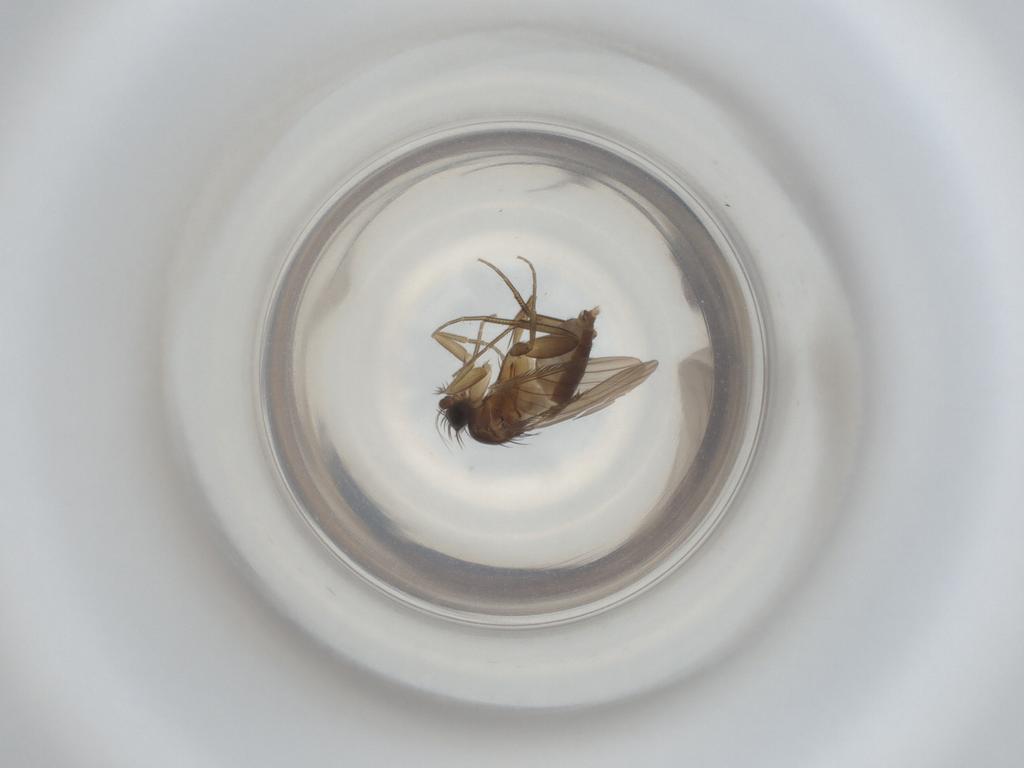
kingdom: Animalia
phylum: Arthropoda
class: Insecta
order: Diptera
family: Phoridae
